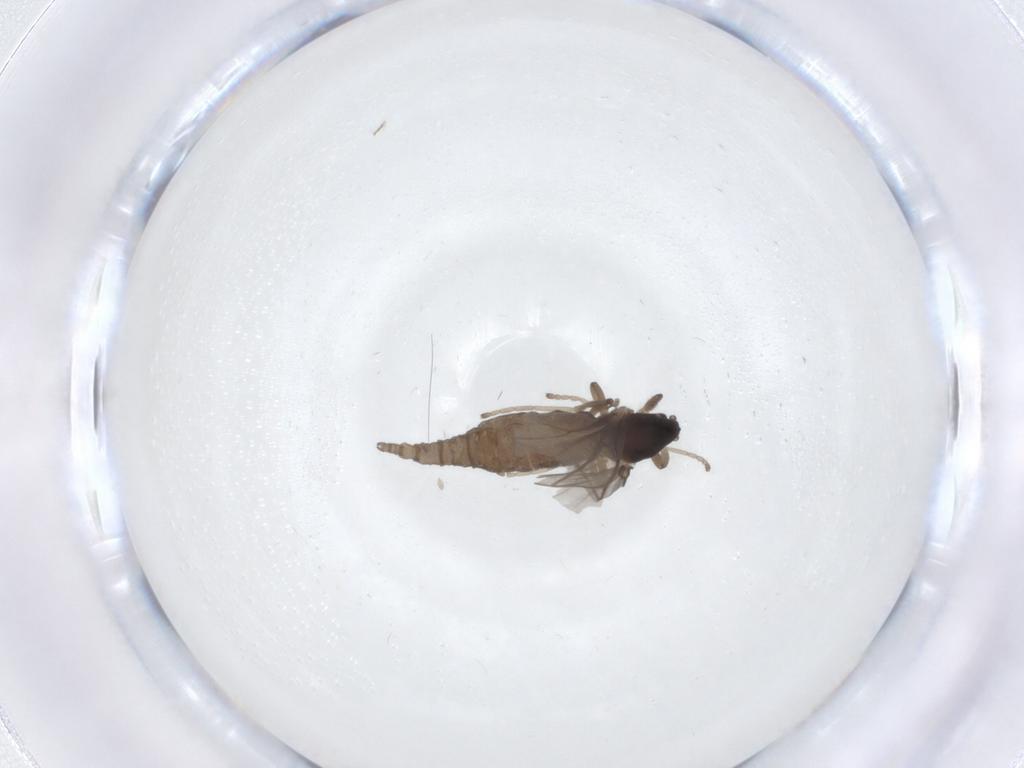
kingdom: Animalia
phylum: Arthropoda
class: Insecta
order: Diptera
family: Cecidomyiidae
